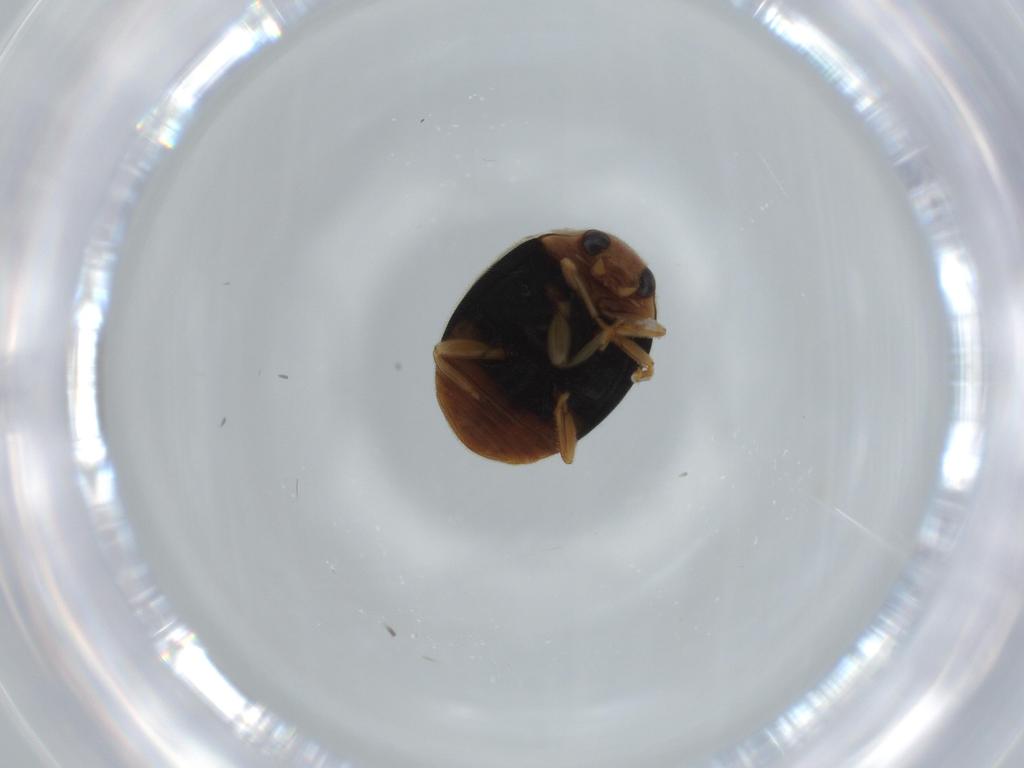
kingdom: Animalia
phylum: Arthropoda
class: Insecta
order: Coleoptera
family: Coccinellidae
